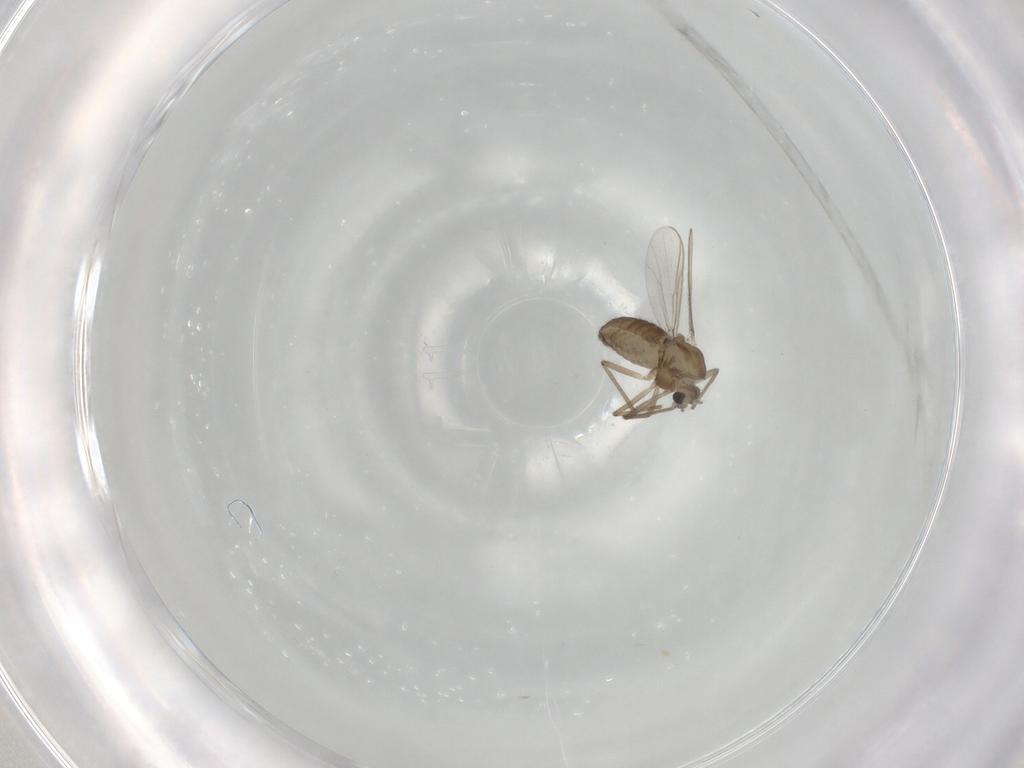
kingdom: Animalia
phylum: Arthropoda
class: Insecta
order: Diptera
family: Chironomidae
